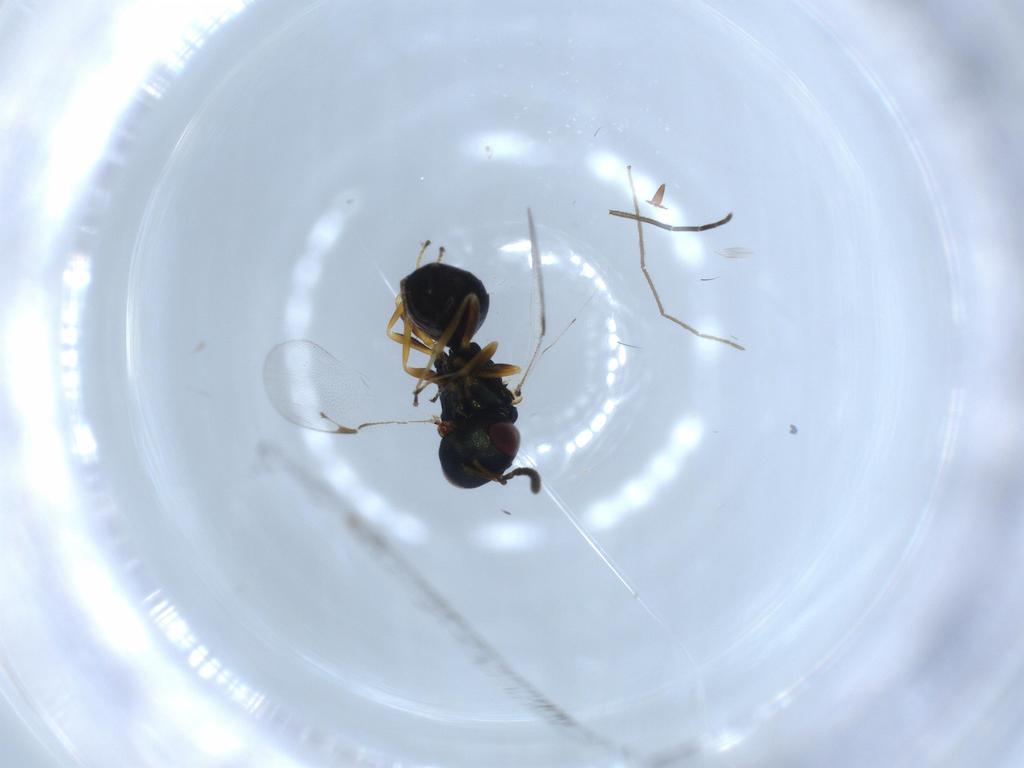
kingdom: Animalia
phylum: Arthropoda
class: Insecta
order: Hymenoptera
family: Formicidae
